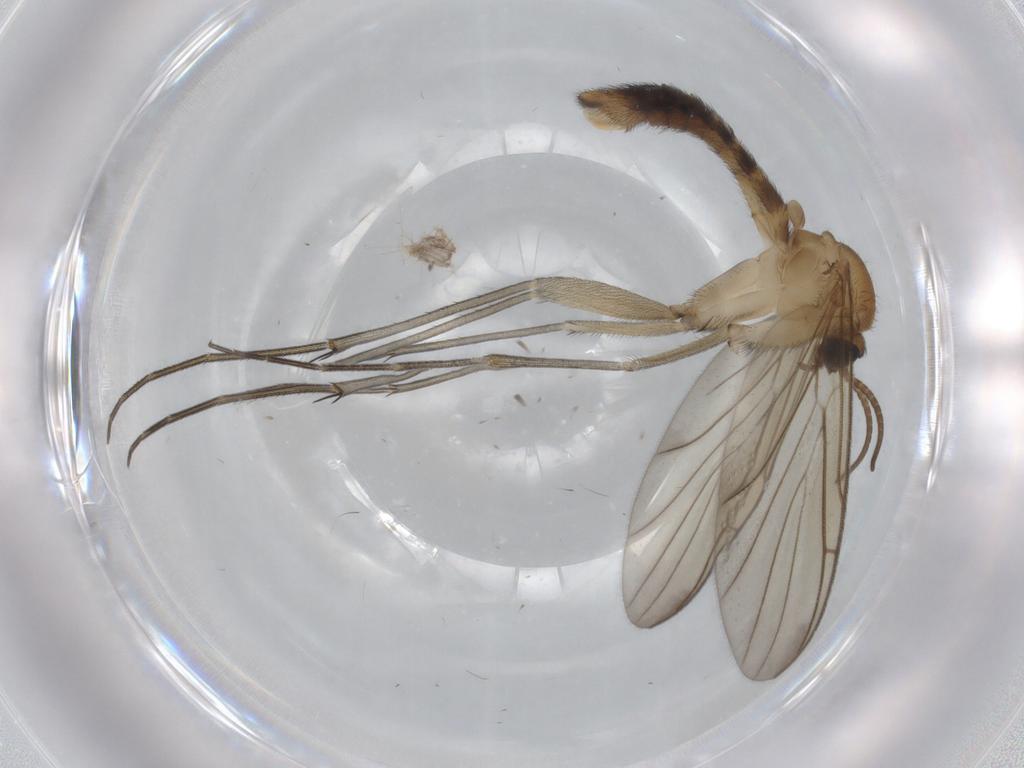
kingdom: Animalia
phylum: Arthropoda
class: Insecta
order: Diptera
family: Keroplatidae
